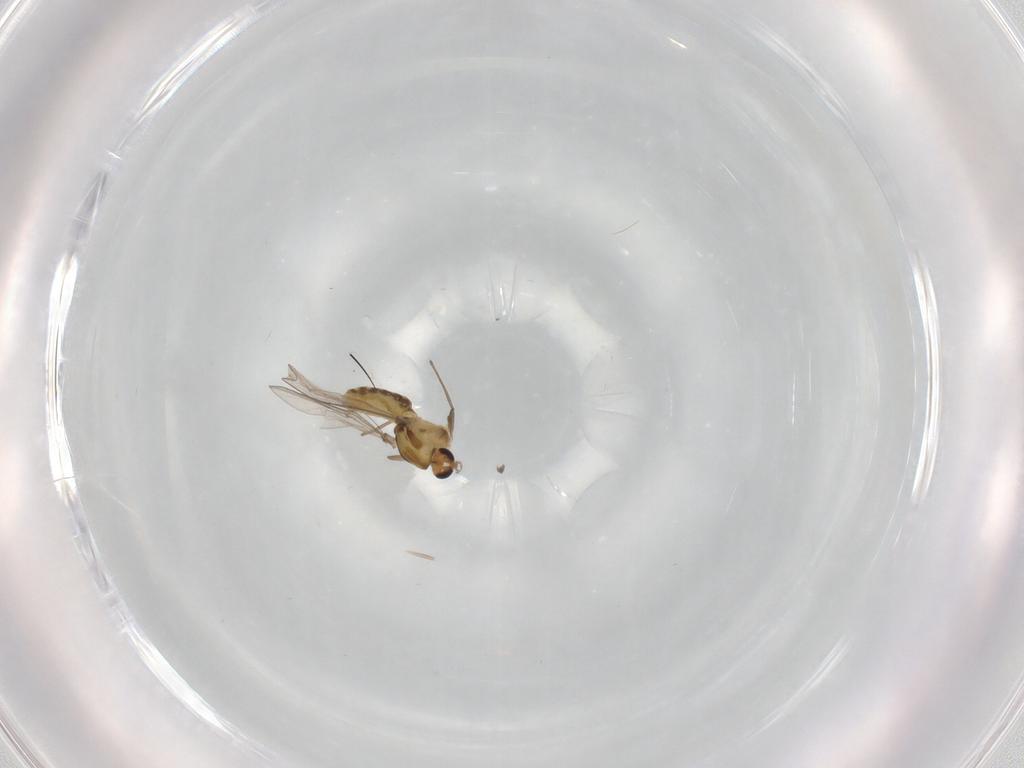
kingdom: Animalia
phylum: Arthropoda
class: Insecta
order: Diptera
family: Chironomidae
